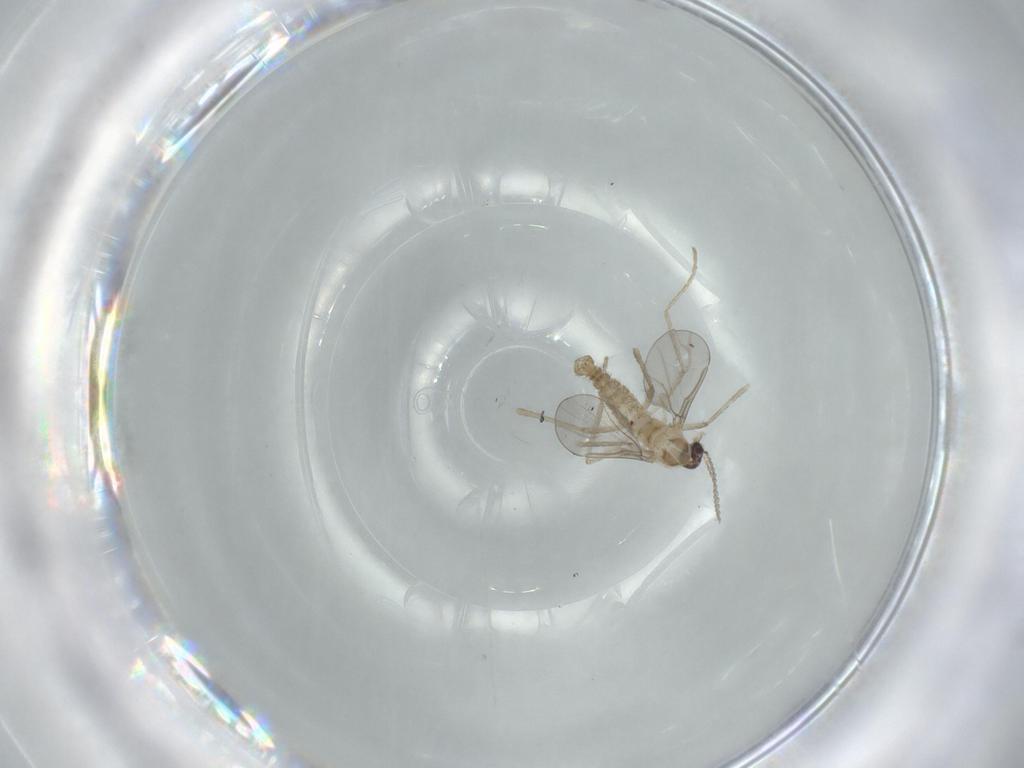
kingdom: Animalia
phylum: Arthropoda
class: Insecta
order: Diptera
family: Cecidomyiidae
